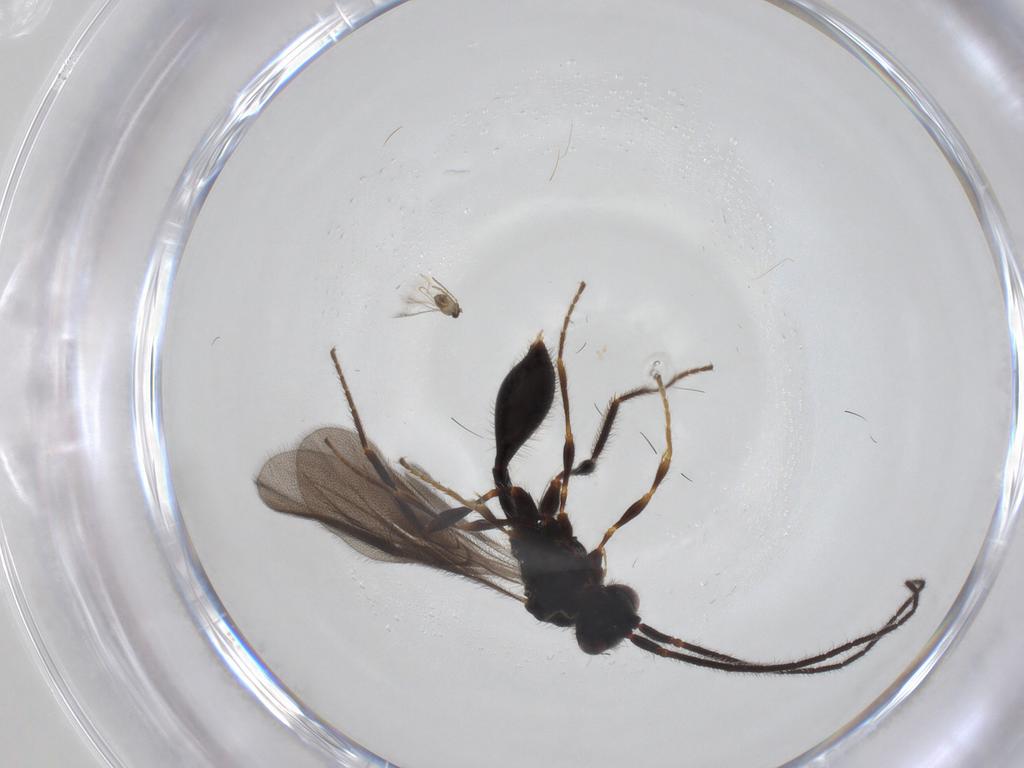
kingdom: Animalia
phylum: Arthropoda
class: Insecta
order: Hymenoptera
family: Diapriidae
